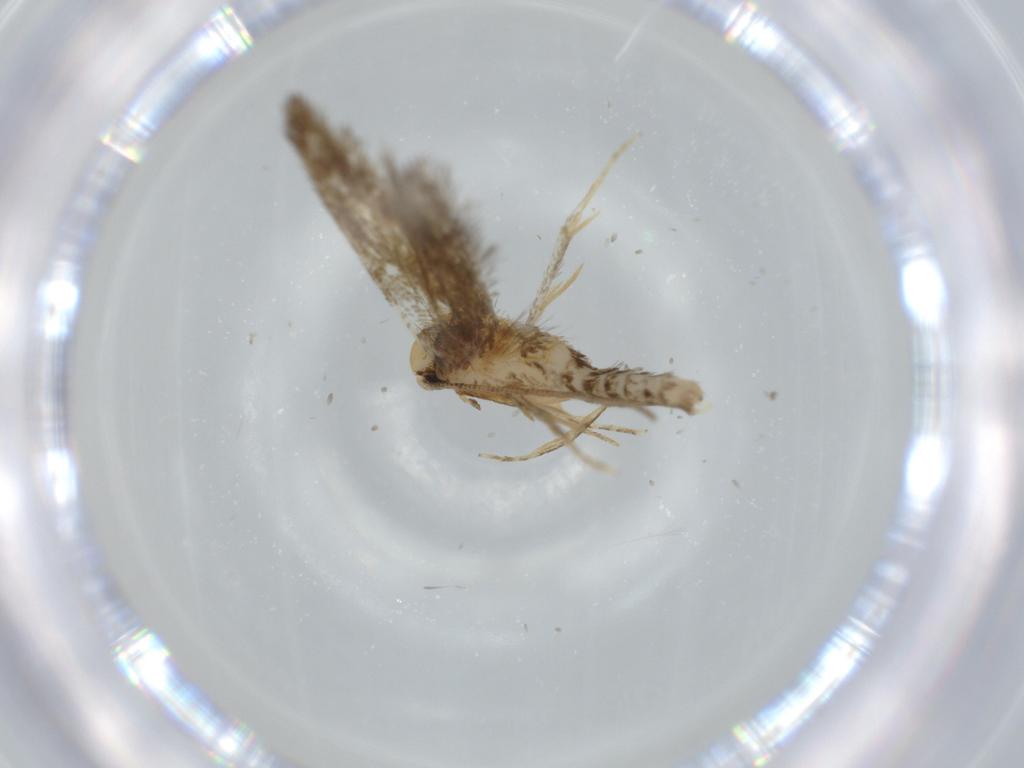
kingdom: Animalia
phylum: Arthropoda
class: Insecta
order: Lepidoptera
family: Tineidae
